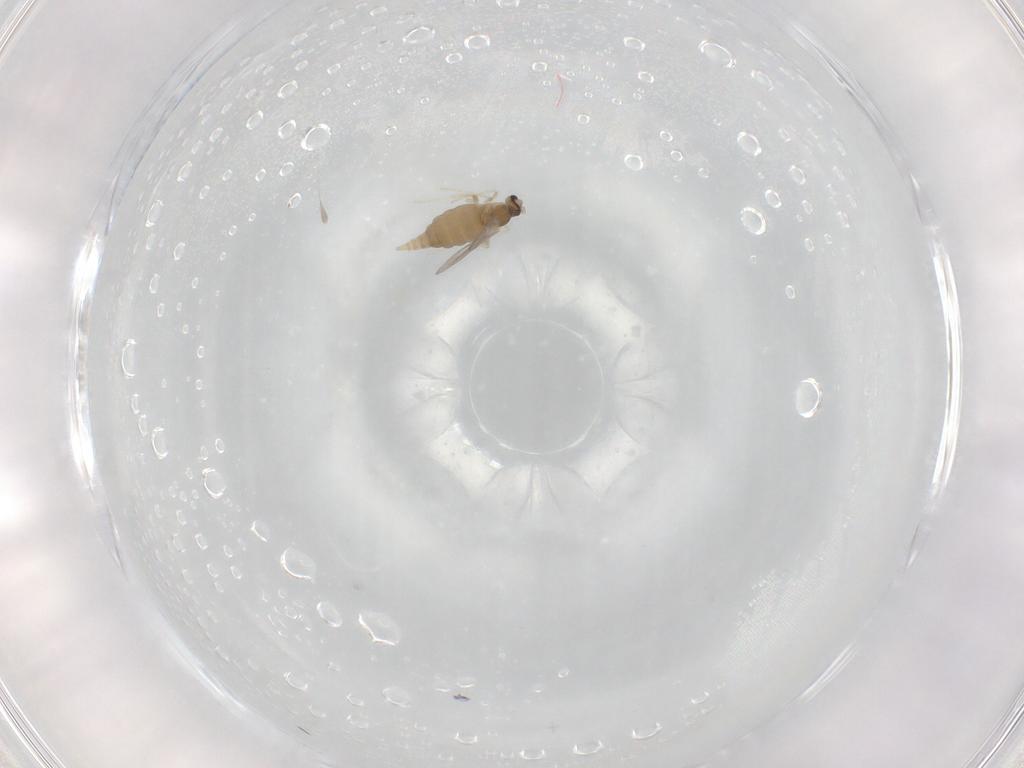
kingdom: Animalia
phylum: Arthropoda
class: Insecta
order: Diptera
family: Cecidomyiidae
